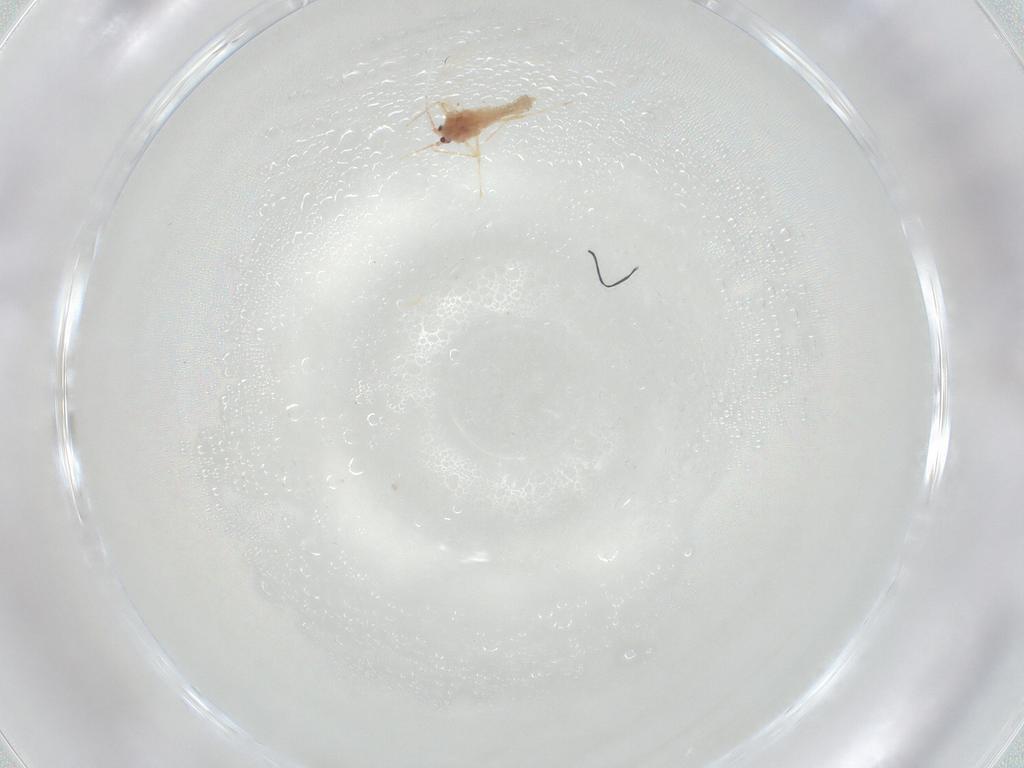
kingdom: Animalia
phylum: Arthropoda
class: Insecta
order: Hemiptera
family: Pseudococcidae
